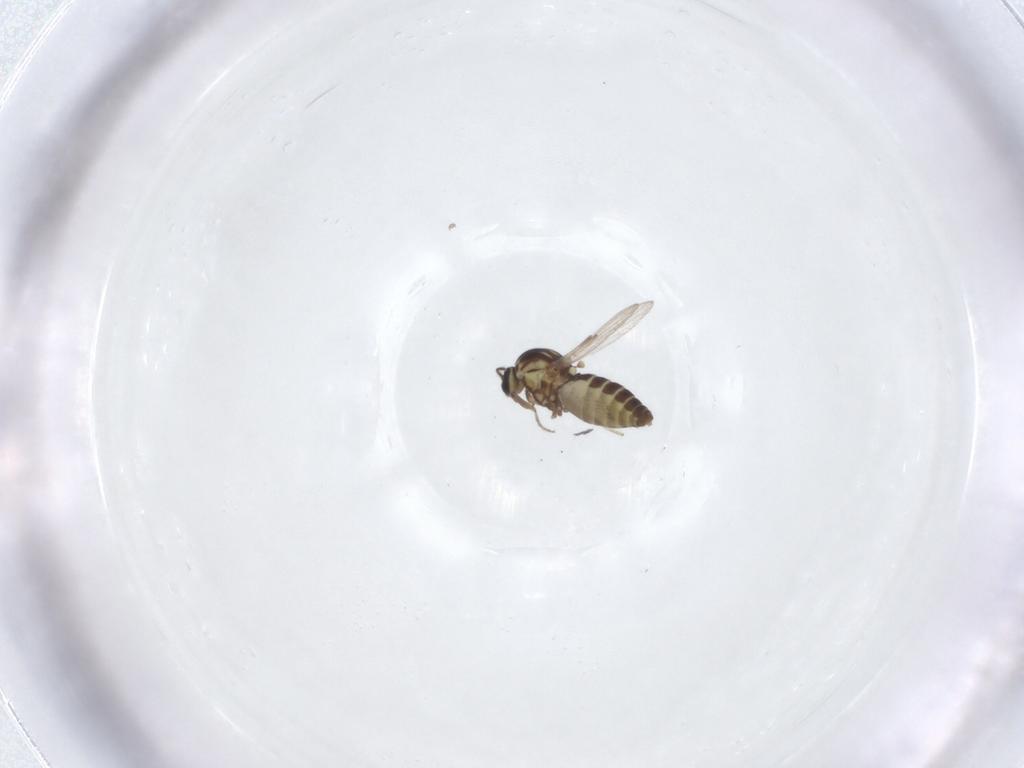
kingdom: Animalia
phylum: Arthropoda
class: Insecta
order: Diptera
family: Ceratopogonidae
